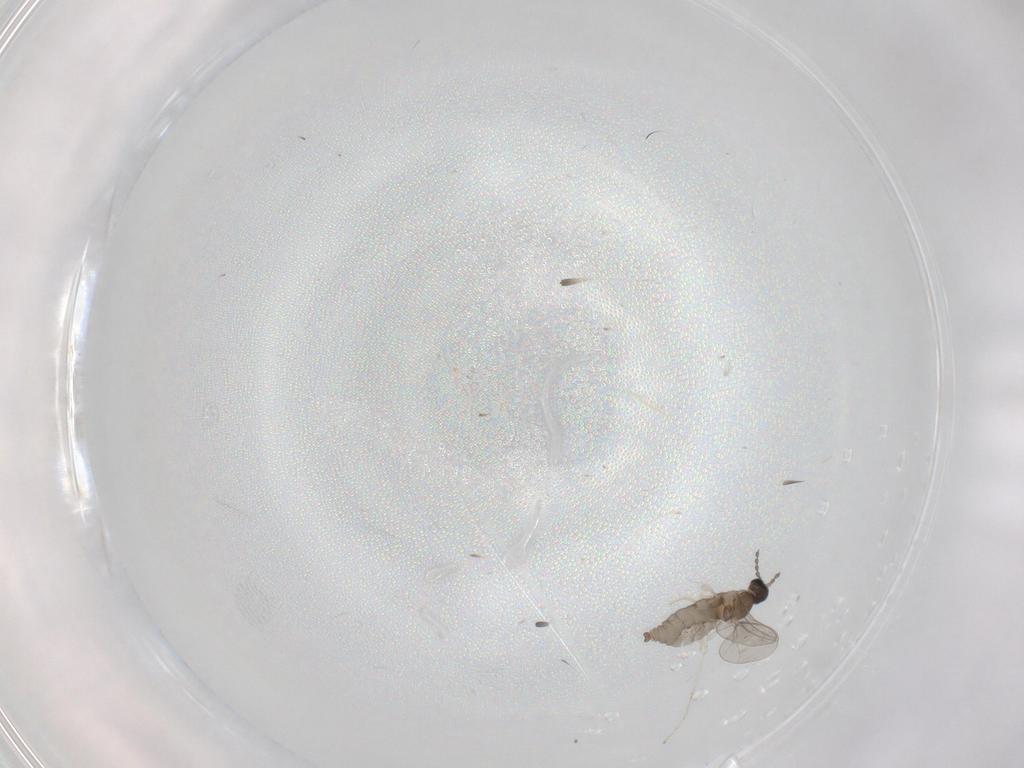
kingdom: Animalia
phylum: Arthropoda
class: Insecta
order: Diptera
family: Cecidomyiidae
